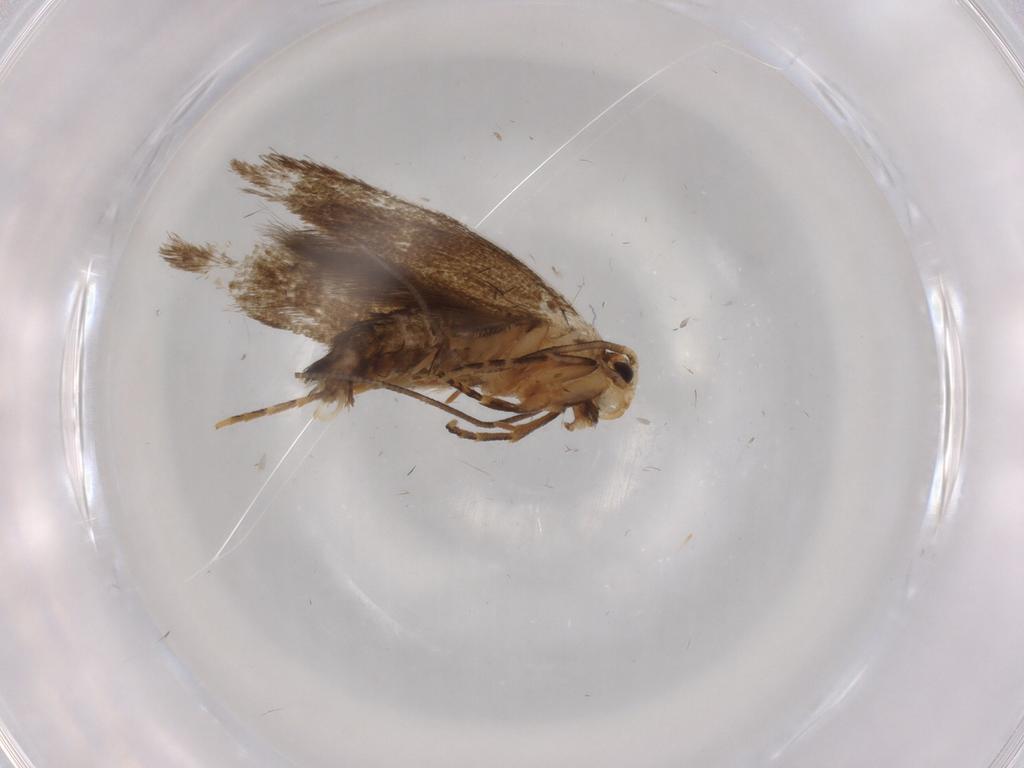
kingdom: Animalia
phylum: Arthropoda
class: Insecta
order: Lepidoptera
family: Tineidae
